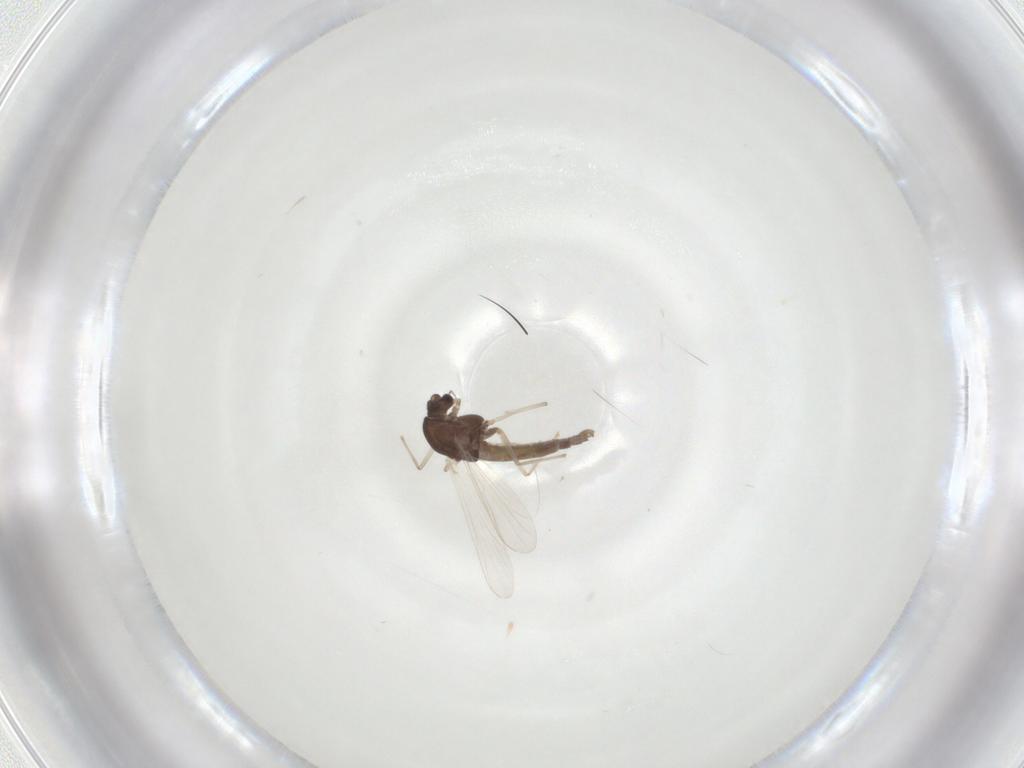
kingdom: Animalia
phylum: Arthropoda
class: Insecta
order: Diptera
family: Chironomidae
